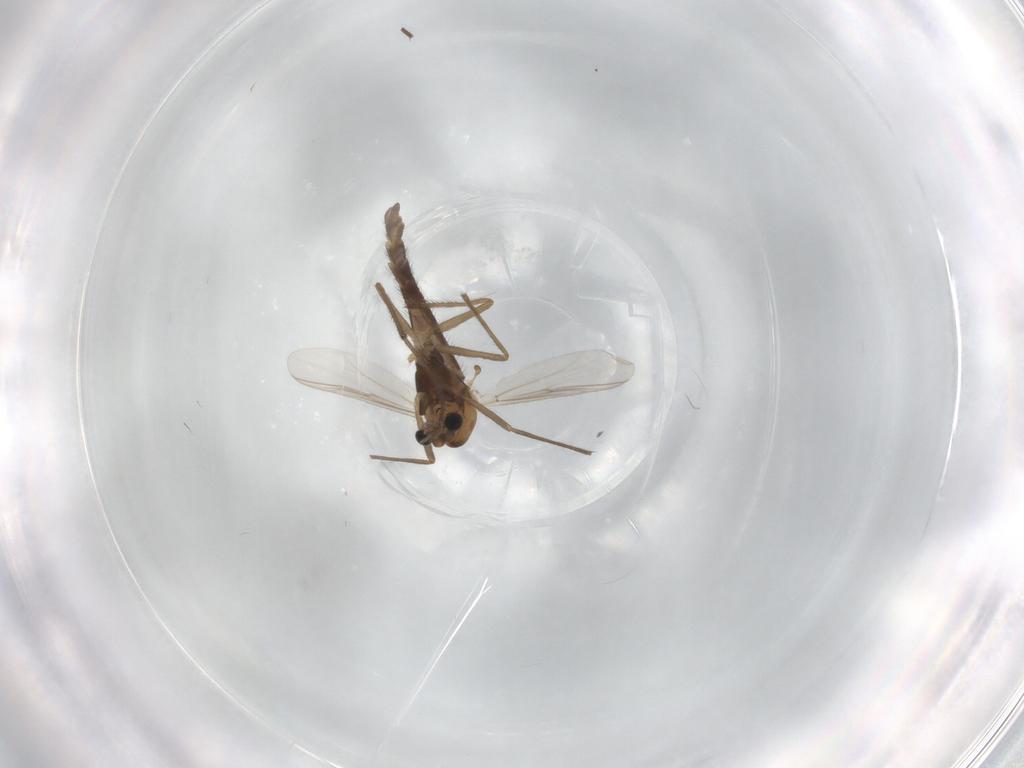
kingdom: Animalia
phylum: Arthropoda
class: Insecta
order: Diptera
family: Chironomidae
